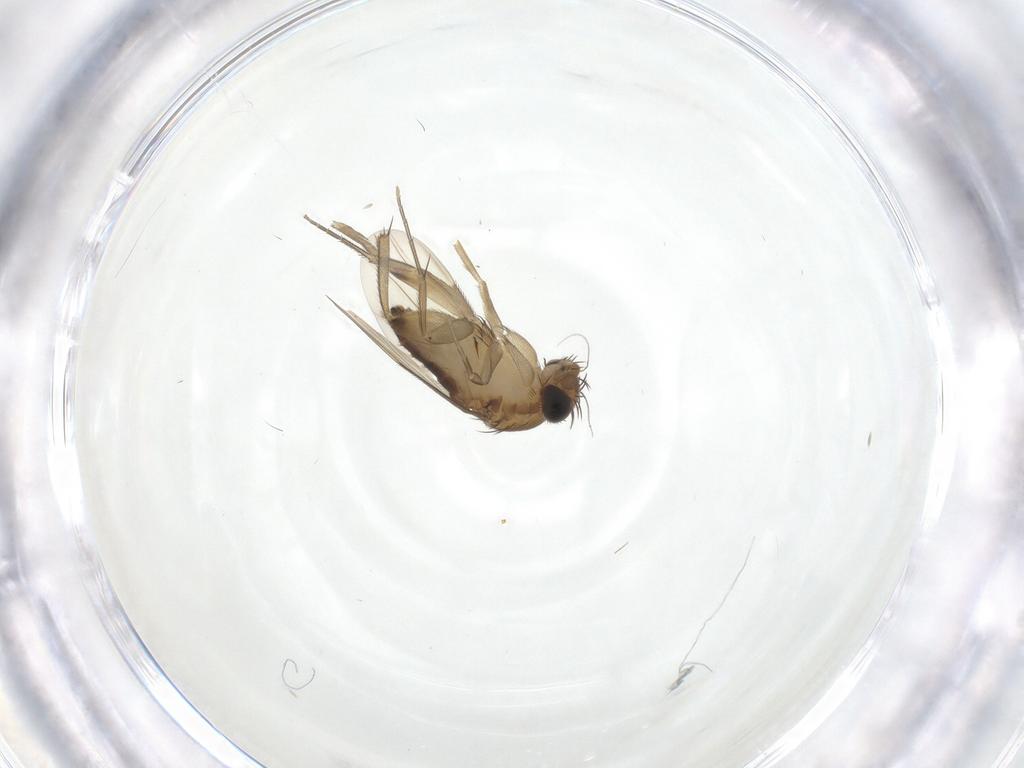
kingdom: Animalia
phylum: Arthropoda
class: Insecta
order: Diptera
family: Phoridae
